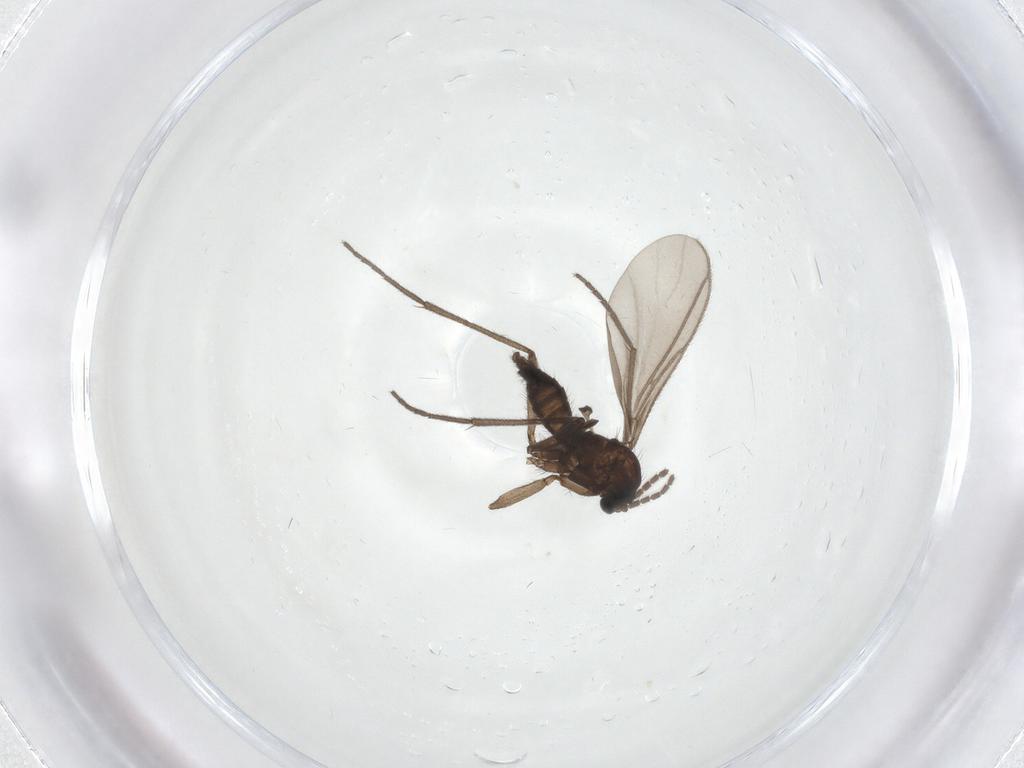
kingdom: Animalia
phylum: Arthropoda
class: Insecta
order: Diptera
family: Sciaridae
